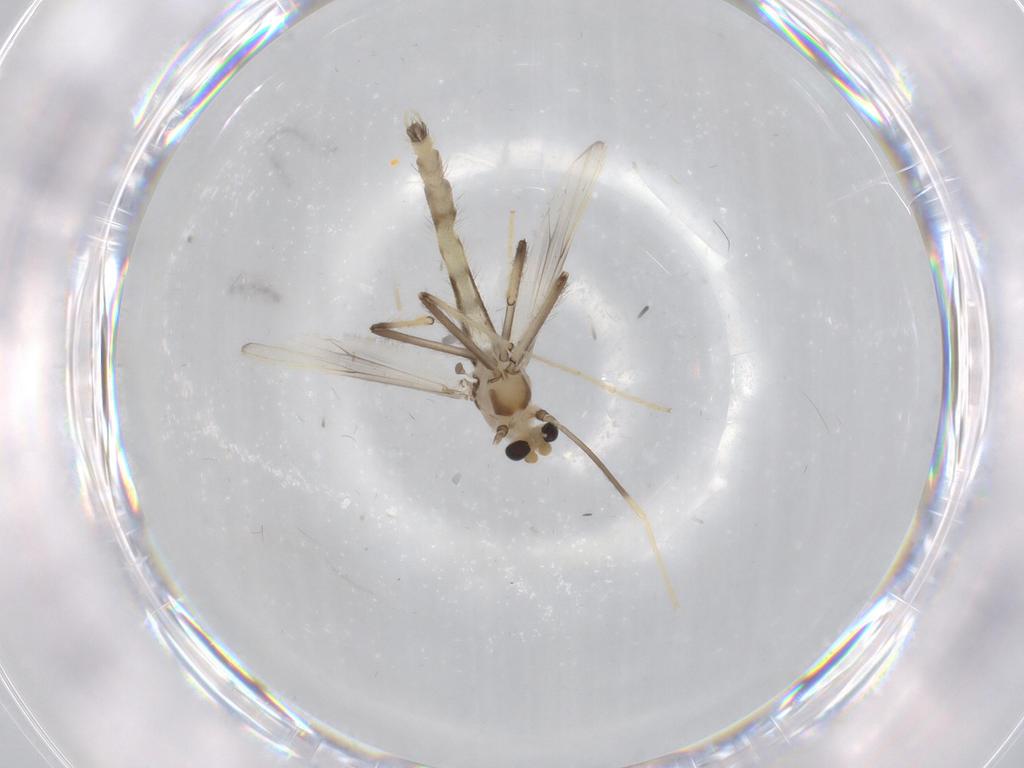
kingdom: Animalia
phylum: Arthropoda
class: Insecta
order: Diptera
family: Chironomidae
